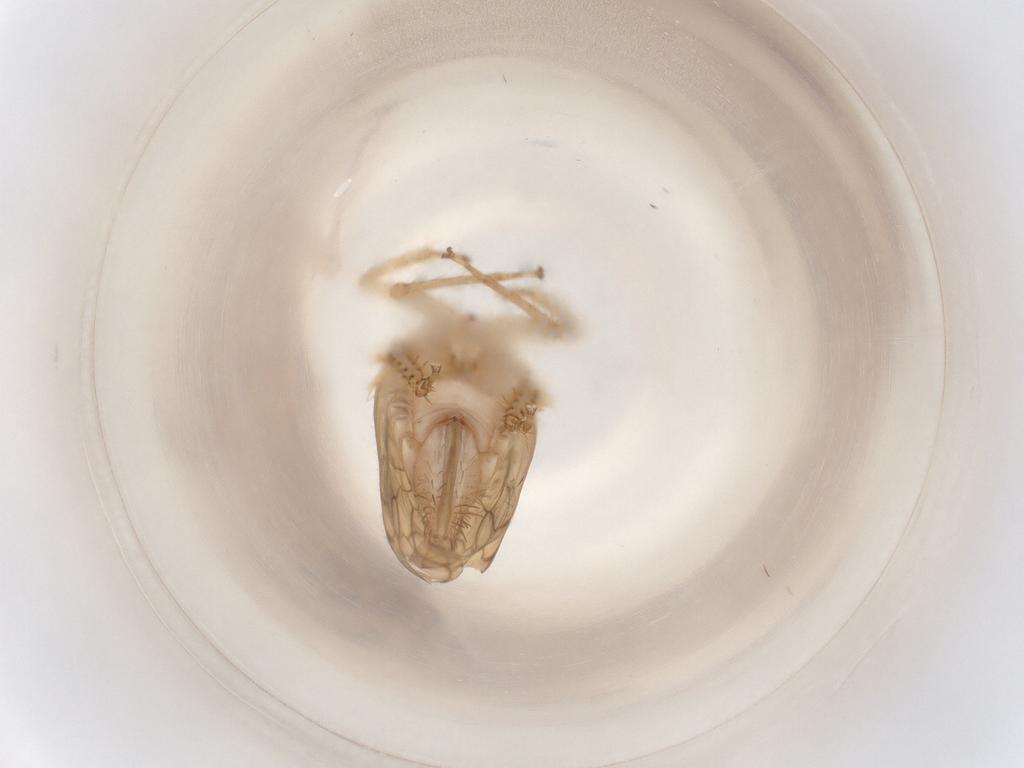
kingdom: Animalia
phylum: Arthropoda
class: Insecta
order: Hemiptera
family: Cicadellidae
